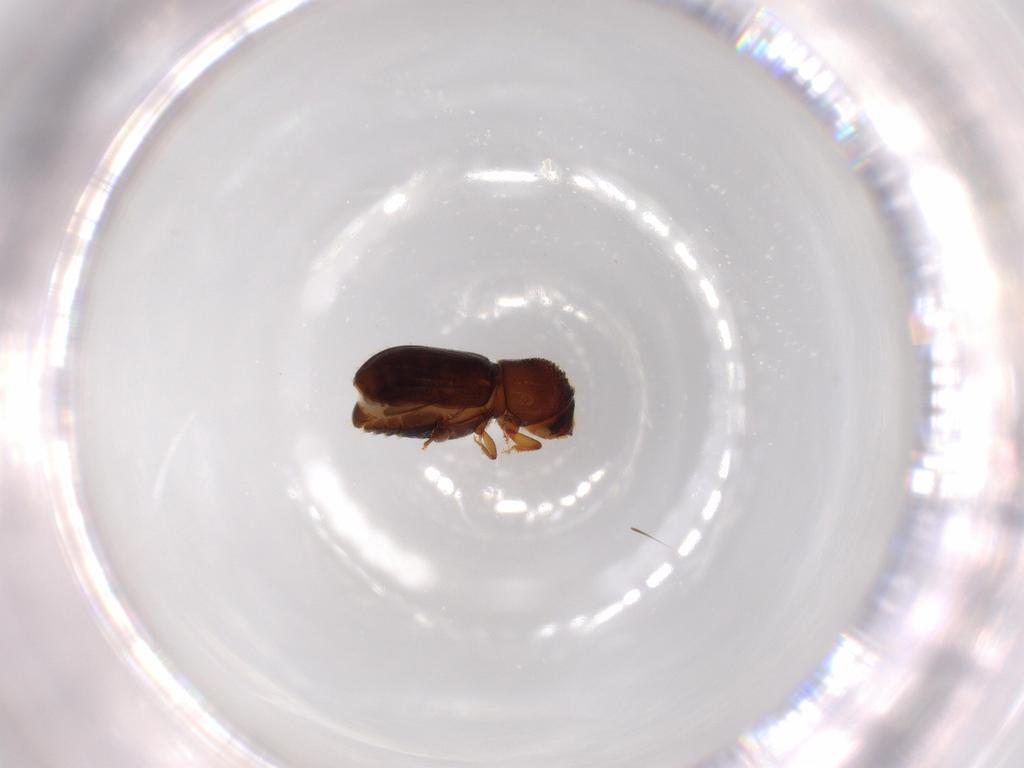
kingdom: Animalia
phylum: Arthropoda
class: Insecta
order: Coleoptera
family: Curculionidae
